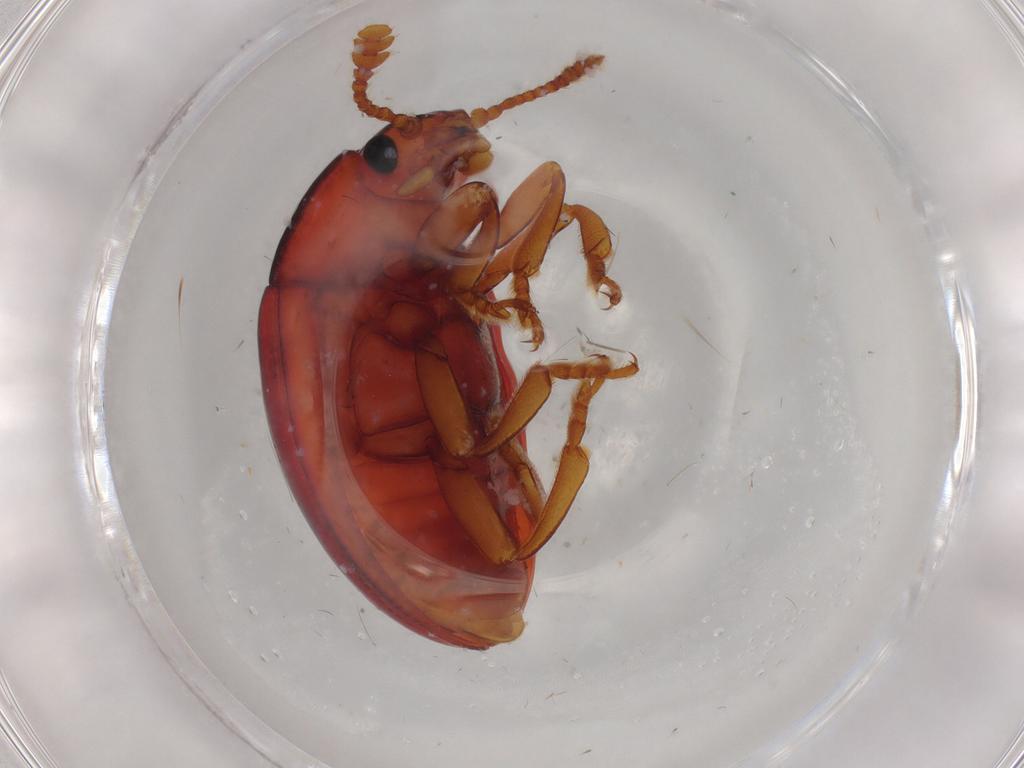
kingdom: Animalia
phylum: Arthropoda
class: Insecta
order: Coleoptera
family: Erotylidae
